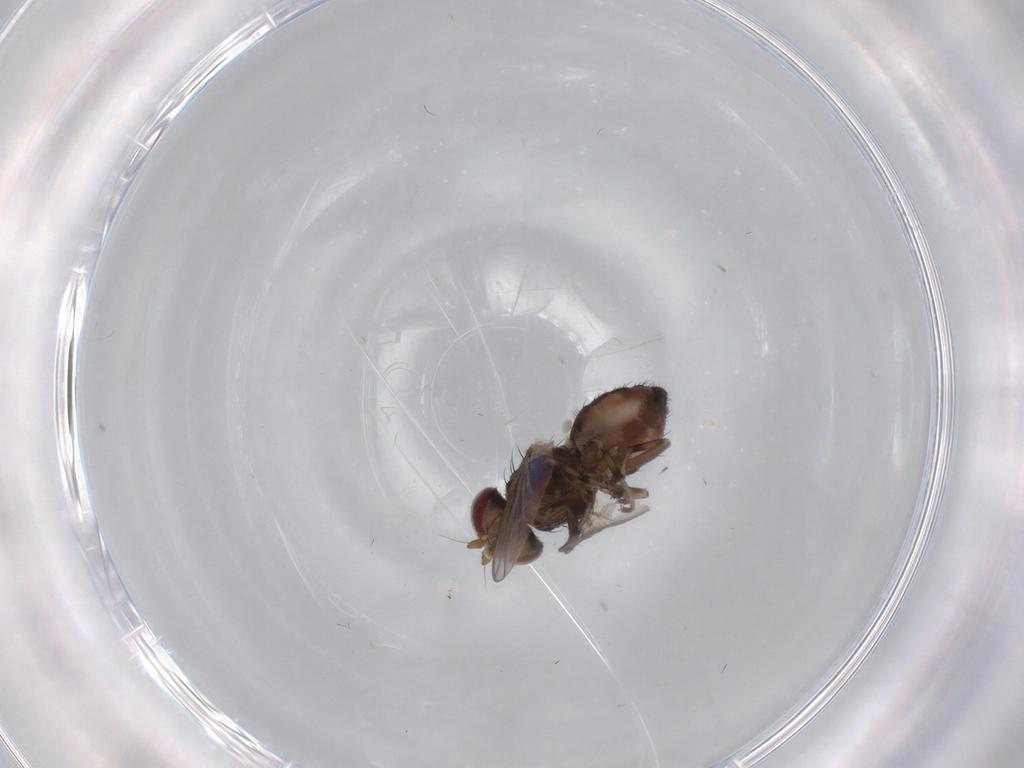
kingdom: Animalia
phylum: Arthropoda
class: Insecta
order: Diptera
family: Heleomyzidae
